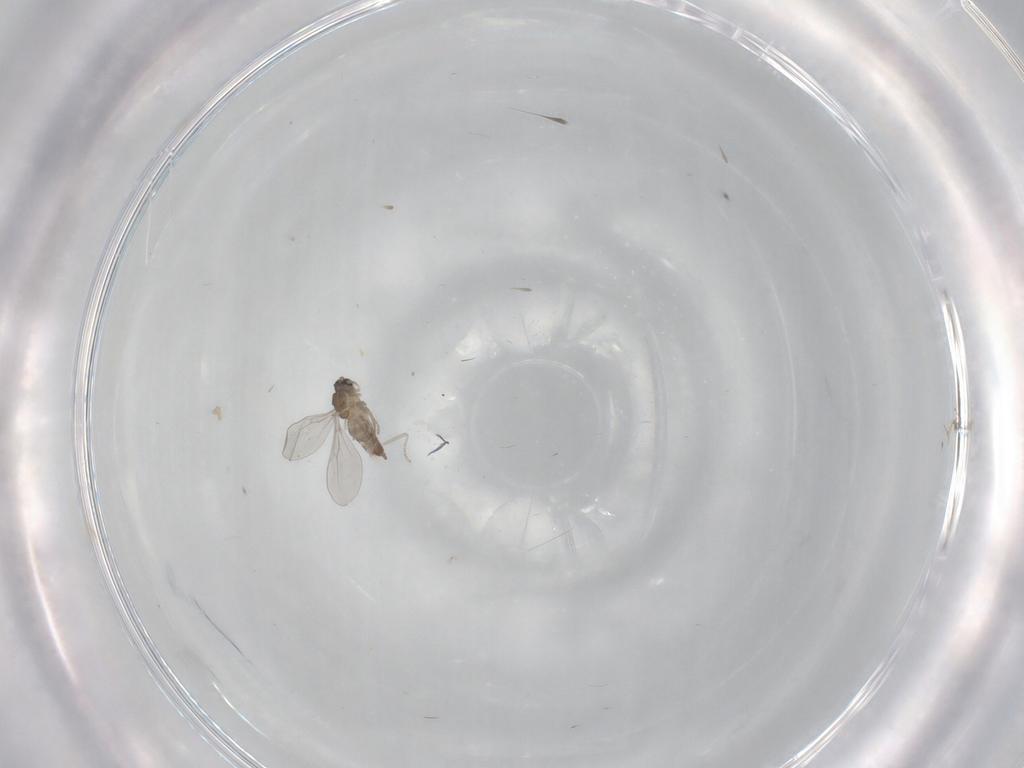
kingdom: Animalia
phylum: Arthropoda
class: Insecta
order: Diptera
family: Cecidomyiidae
